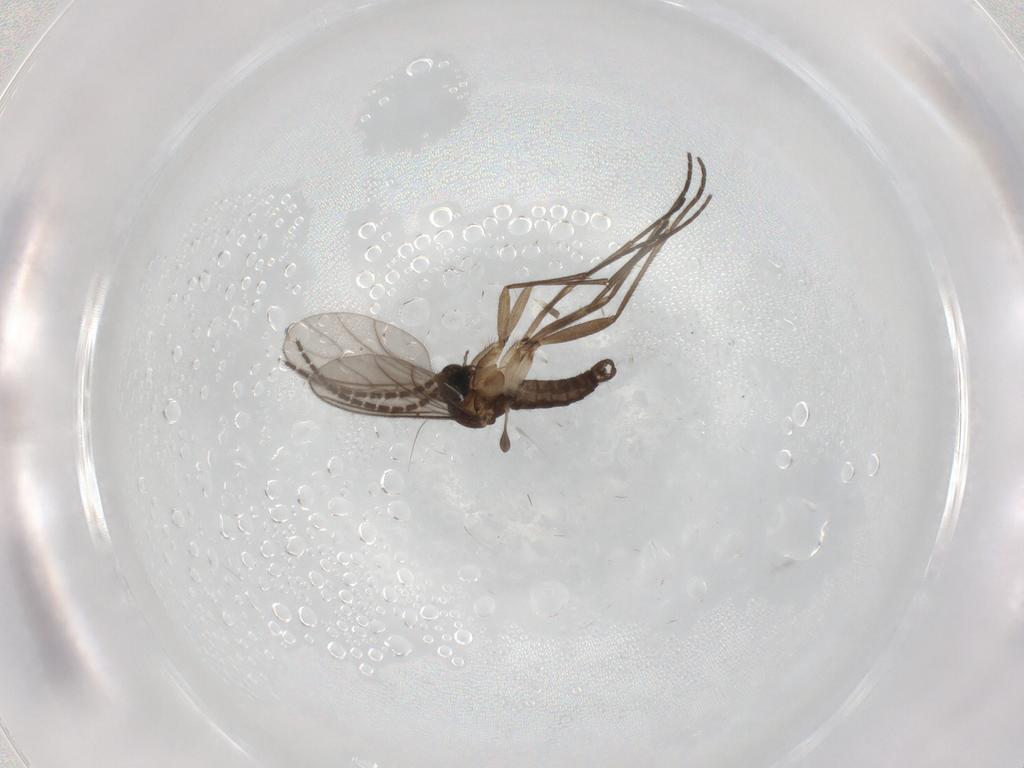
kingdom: Animalia
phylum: Arthropoda
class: Insecta
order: Diptera
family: Sciaridae
